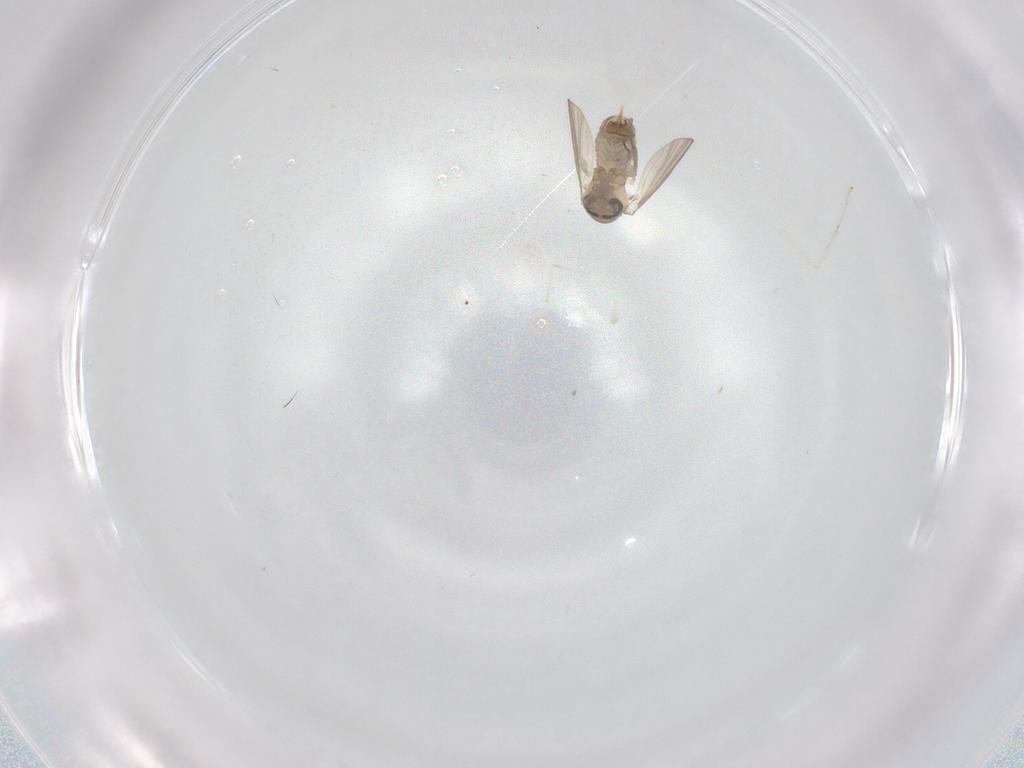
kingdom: Animalia
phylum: Arthropoda
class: Insecta
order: Diptera
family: Psychodidae
